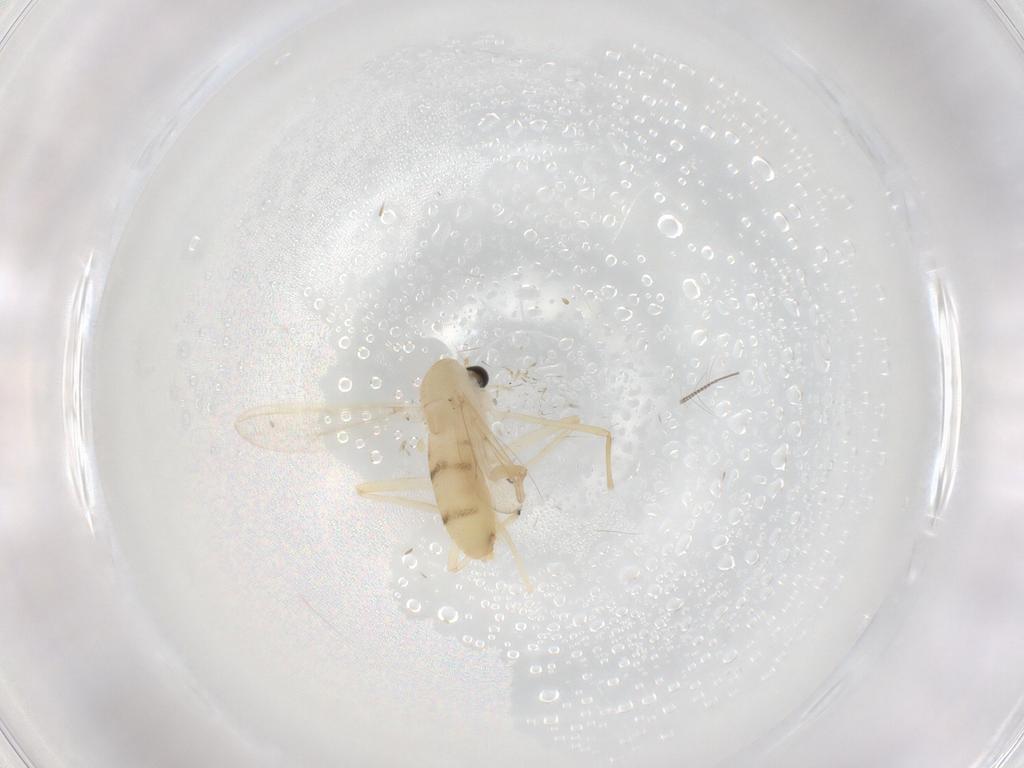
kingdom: Animalia
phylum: Arthropoda
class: Insecta
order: Diptera
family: Chironomidae
